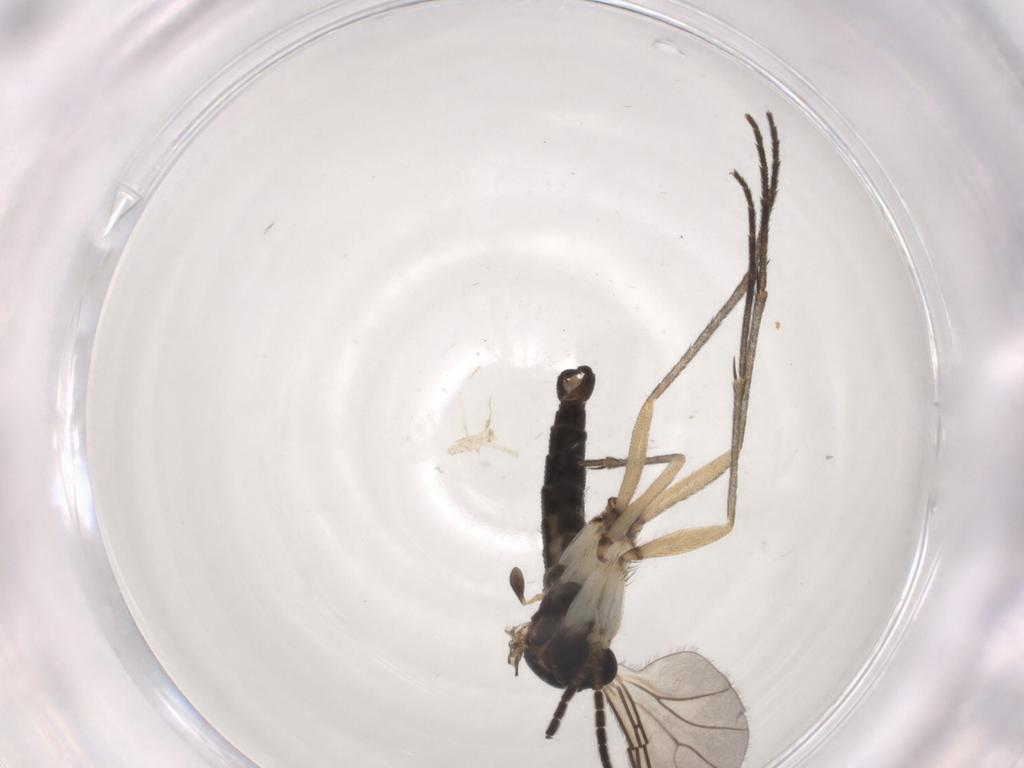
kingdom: Animalia
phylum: Arthropoda
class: Insecta
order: Diptera
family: Sciaridae
